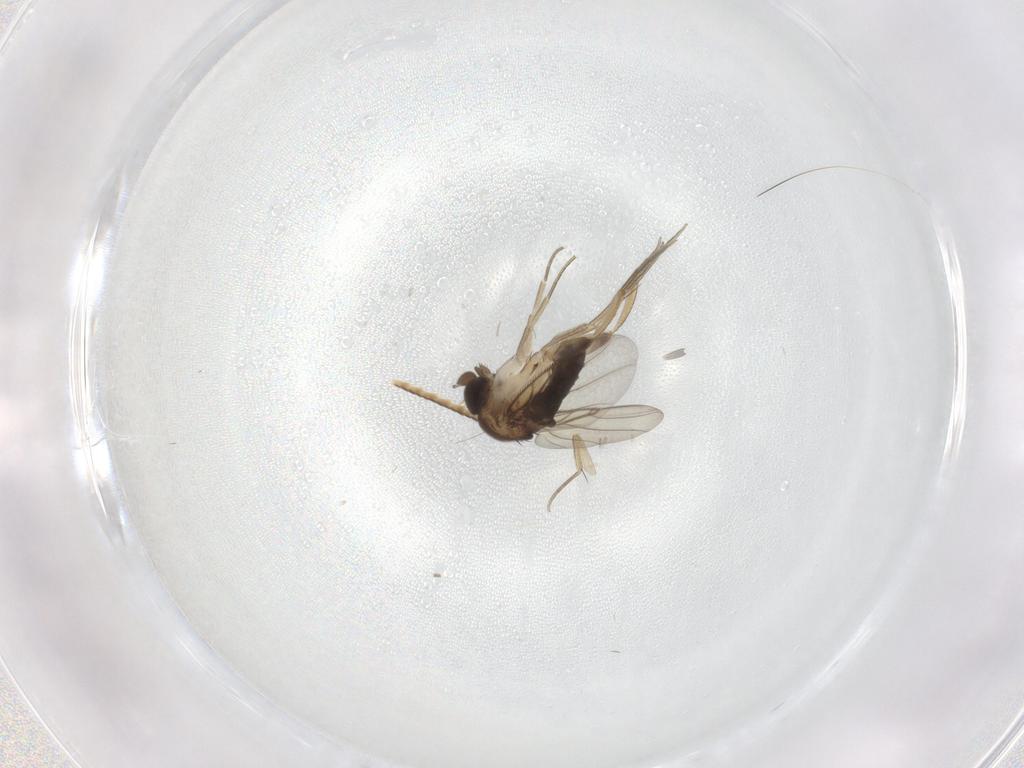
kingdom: Animalia
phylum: Arthropoda
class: Insecta
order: Diptera
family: Phoridae
